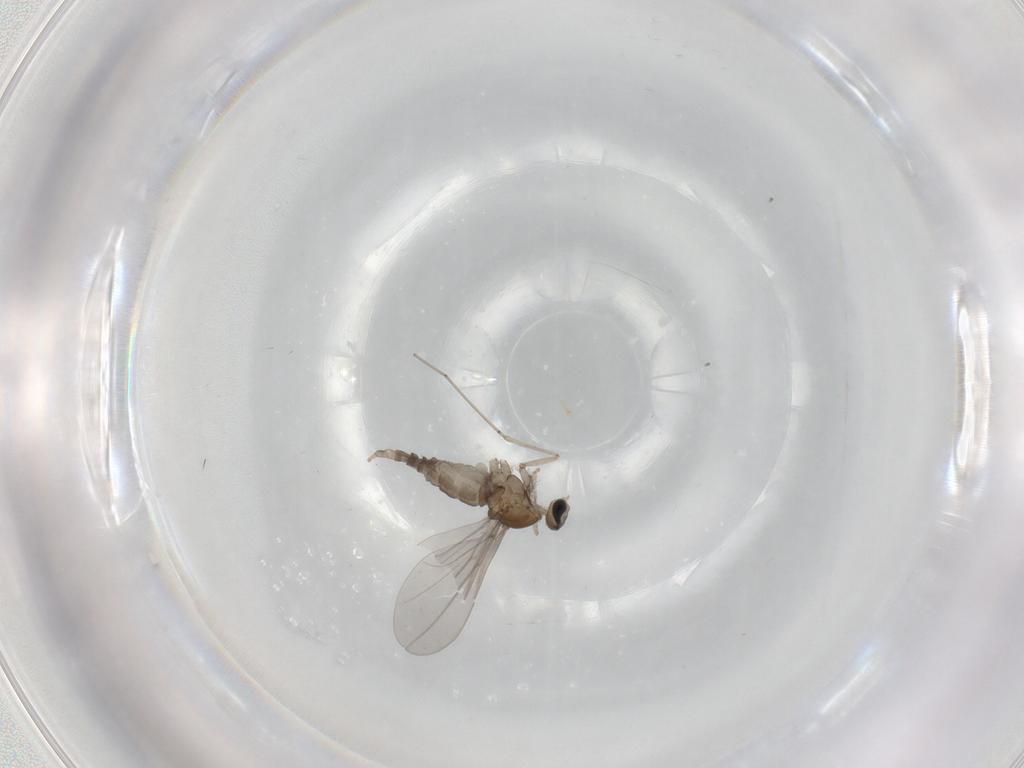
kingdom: Animalia
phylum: Arthropoda
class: Insecta
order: Diptera
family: Cecidomyiidae
